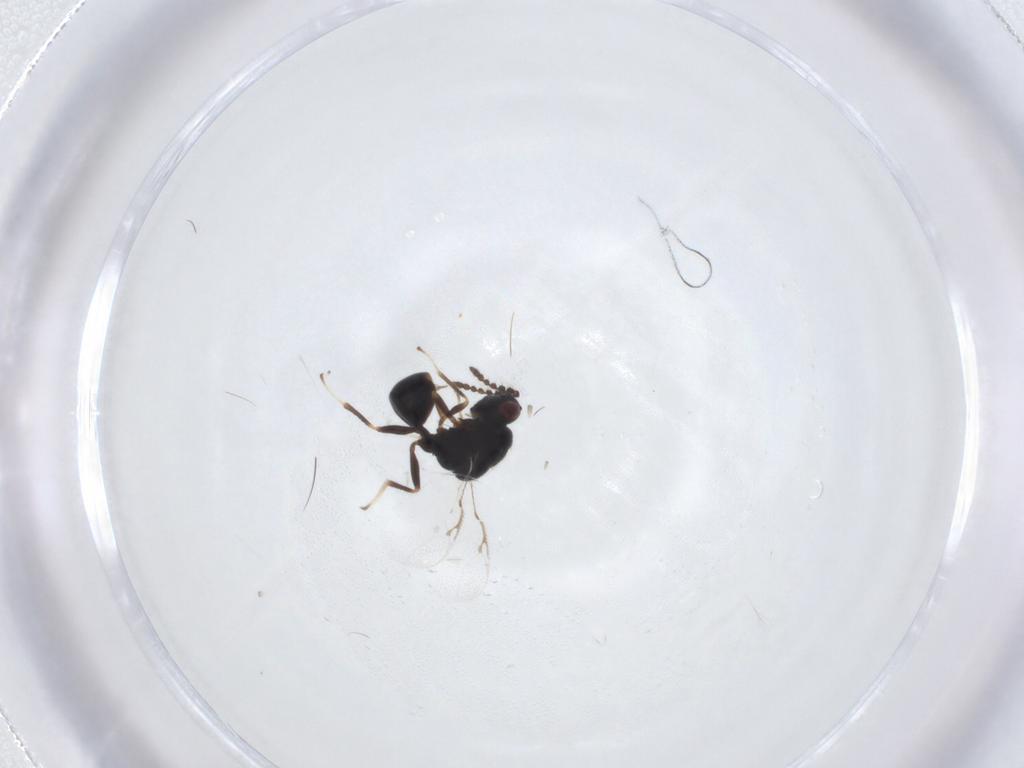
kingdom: Animalia
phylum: Arthropoda
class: Insecta
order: Hymenoptera
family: Eurytomidae
